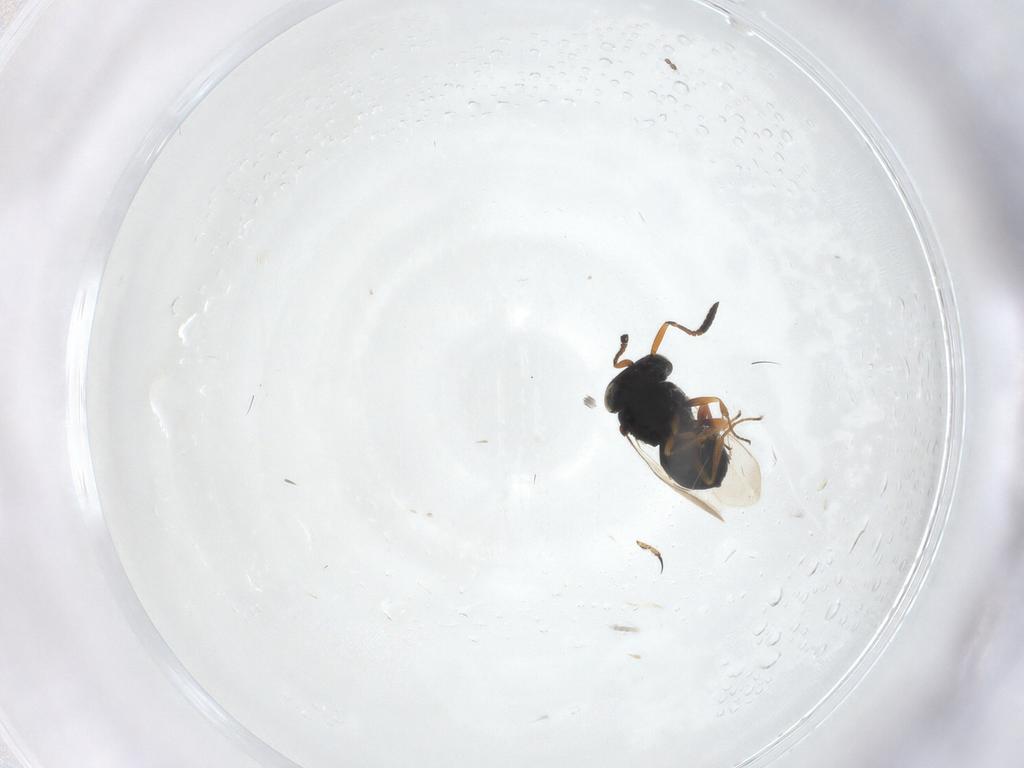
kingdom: Animalia
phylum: Arthropoda
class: Insecta
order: Hymenoptera
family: Scelionidae
